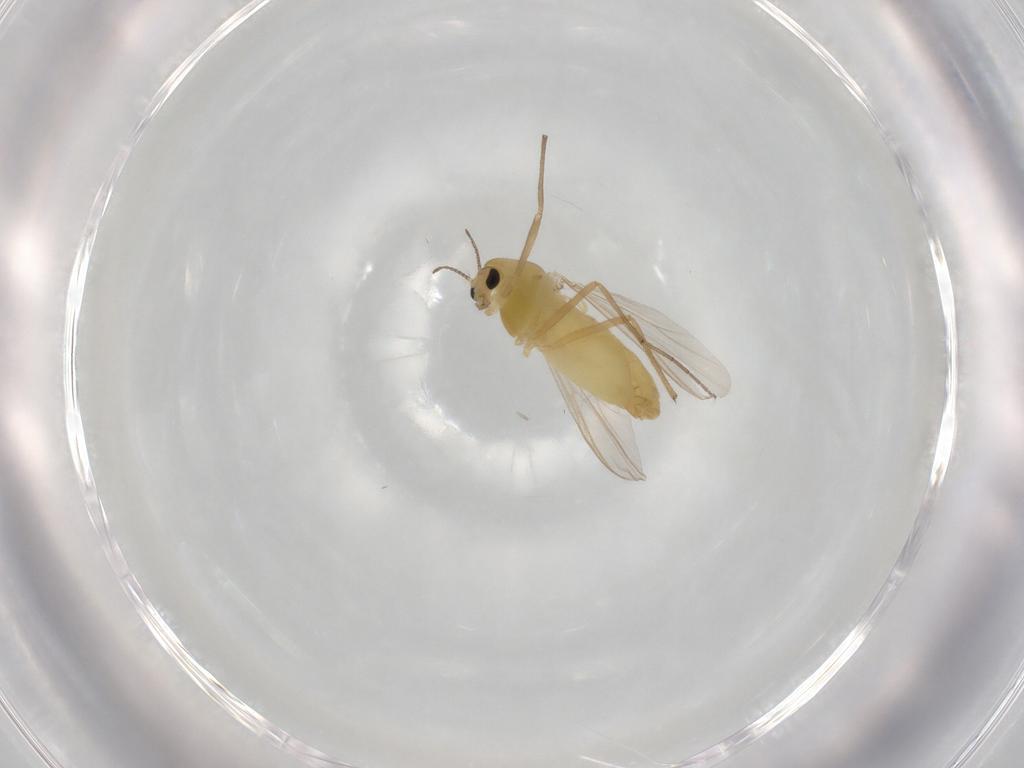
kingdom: Animalia
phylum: Arthropoda
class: Insecta
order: Diptera
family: Chironomidae
